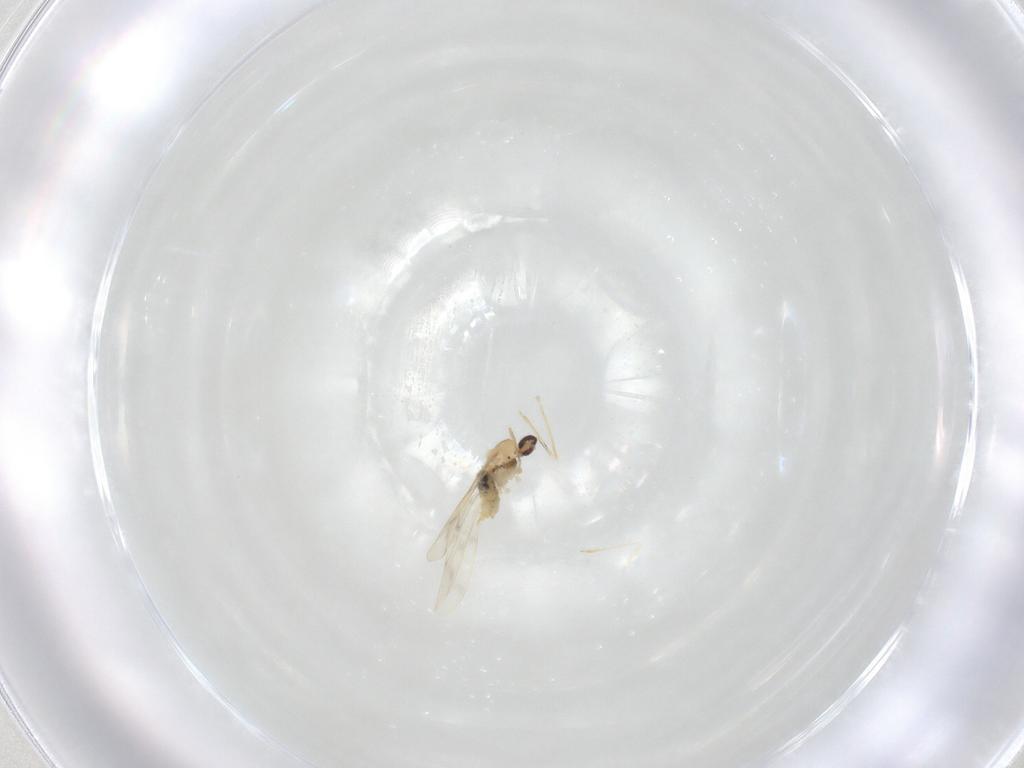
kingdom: Animalia
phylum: Arthropoda
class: Insecta
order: Diptera
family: Cecidomyiidae
